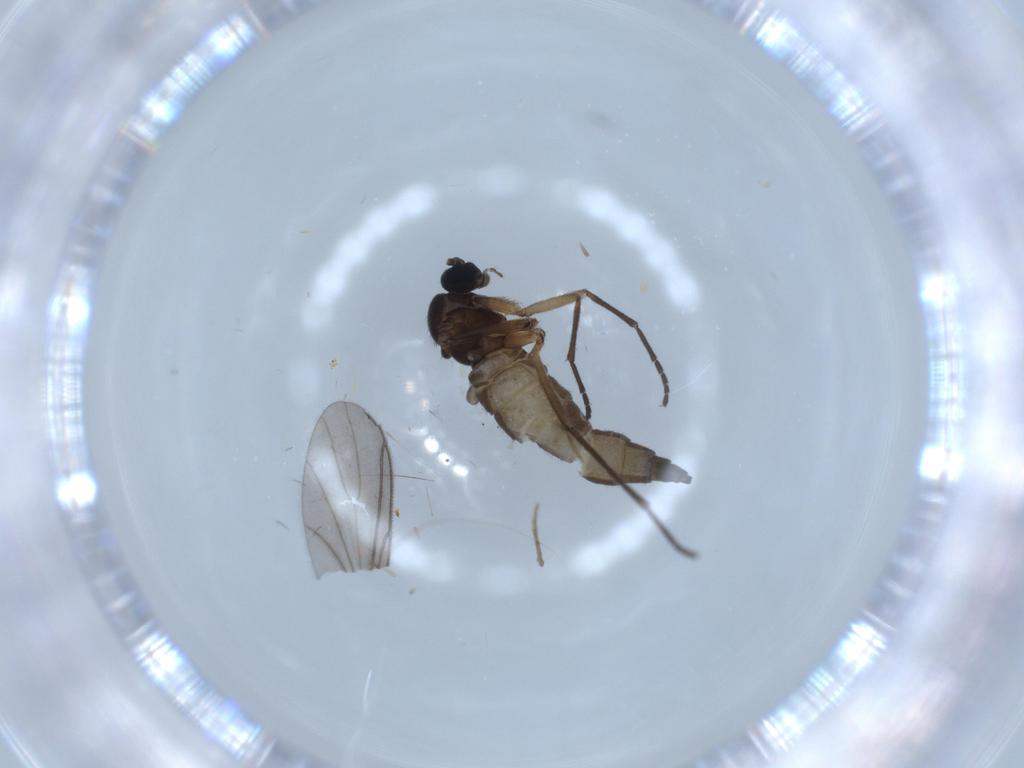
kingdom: Animalia
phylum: Arthropoda
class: Insecta
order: Diptera
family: Sciaridae
